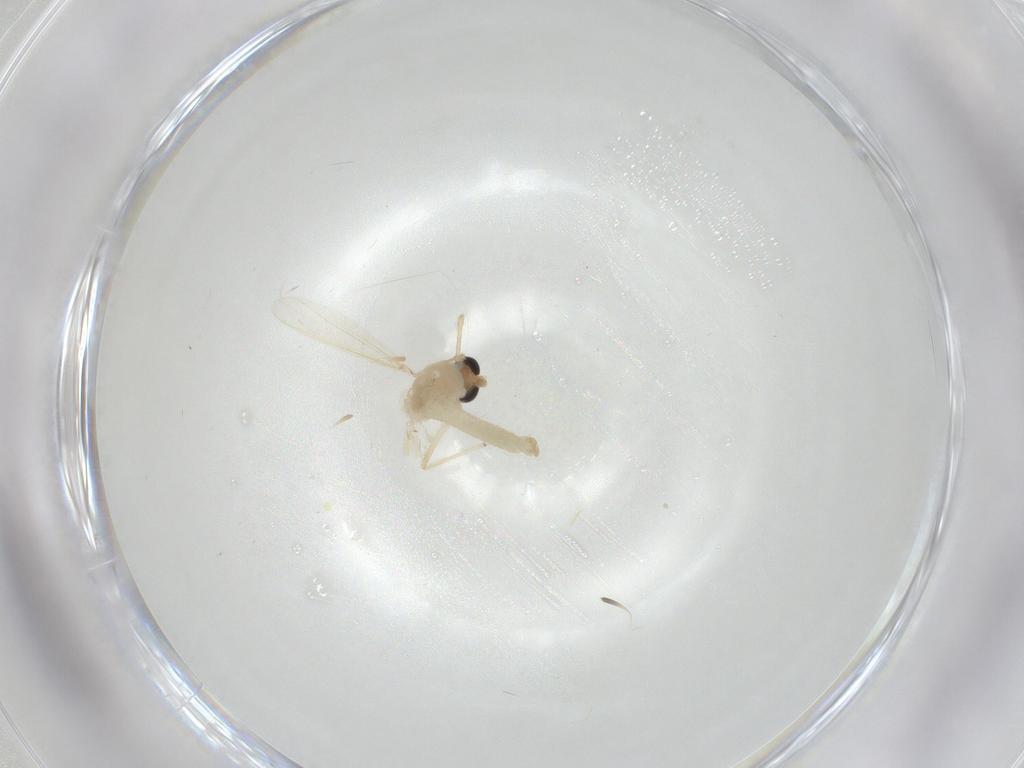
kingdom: Animalia
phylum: Arthropoda
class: Insecta
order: Diptera
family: Chironomidae
